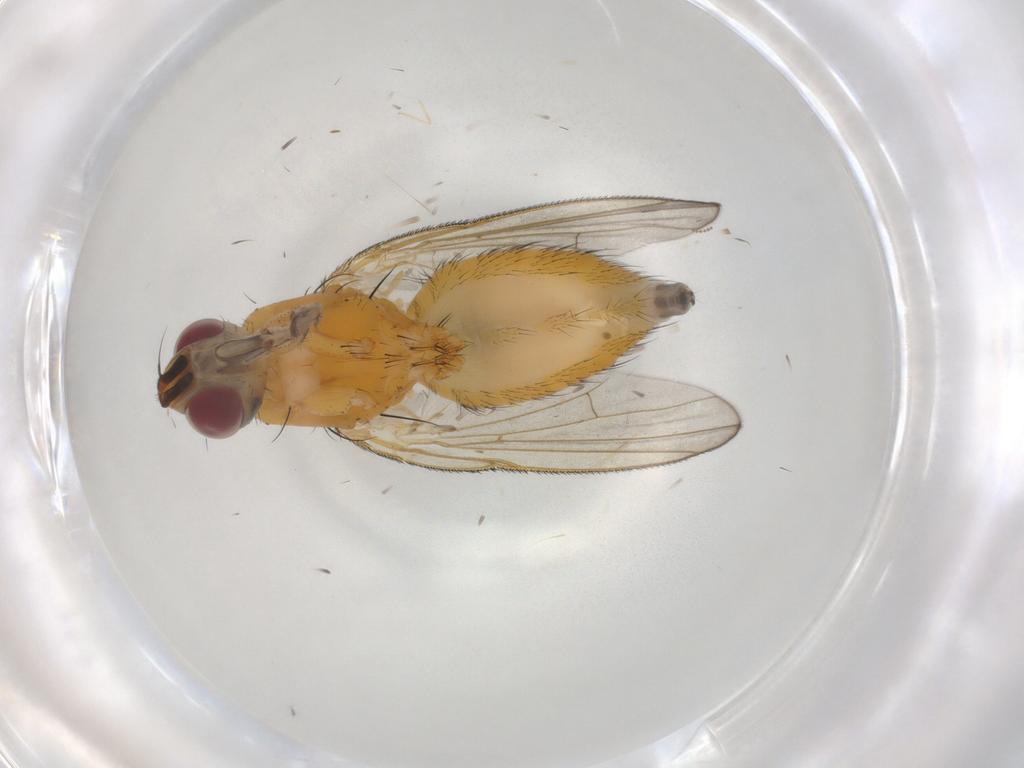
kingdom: Animalia
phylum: Arthropoda
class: Insecta
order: Diptera
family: Muscidae
